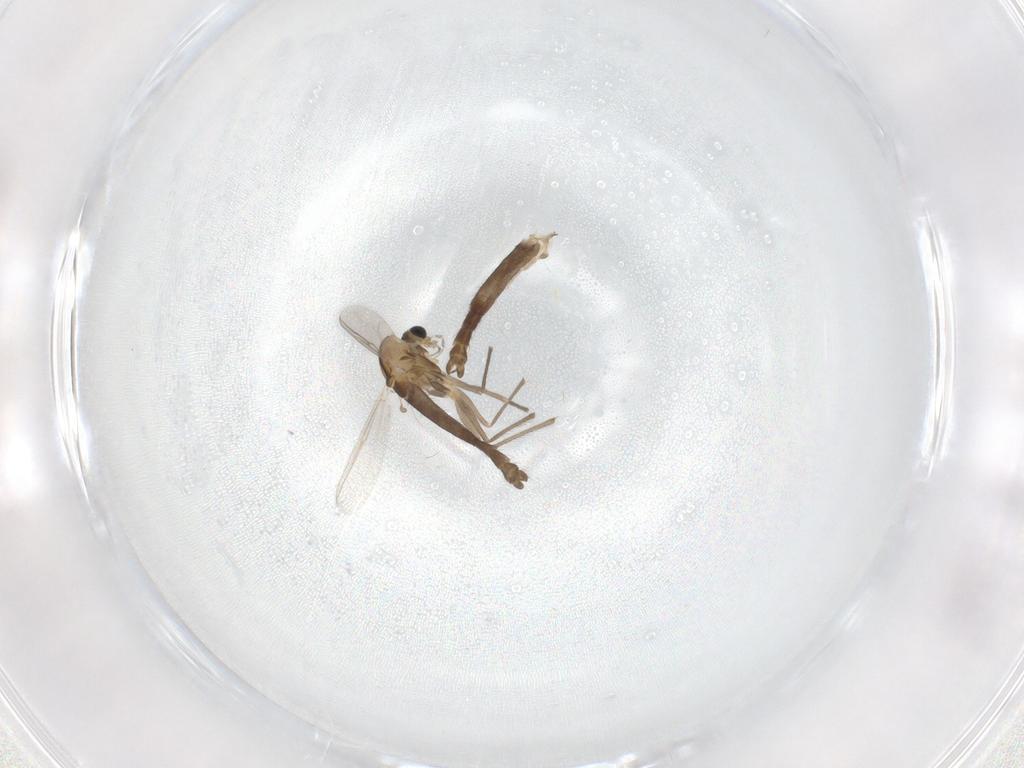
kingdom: Animalia
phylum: Arthropoda
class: Insecta
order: Diptera
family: Chironomidae
